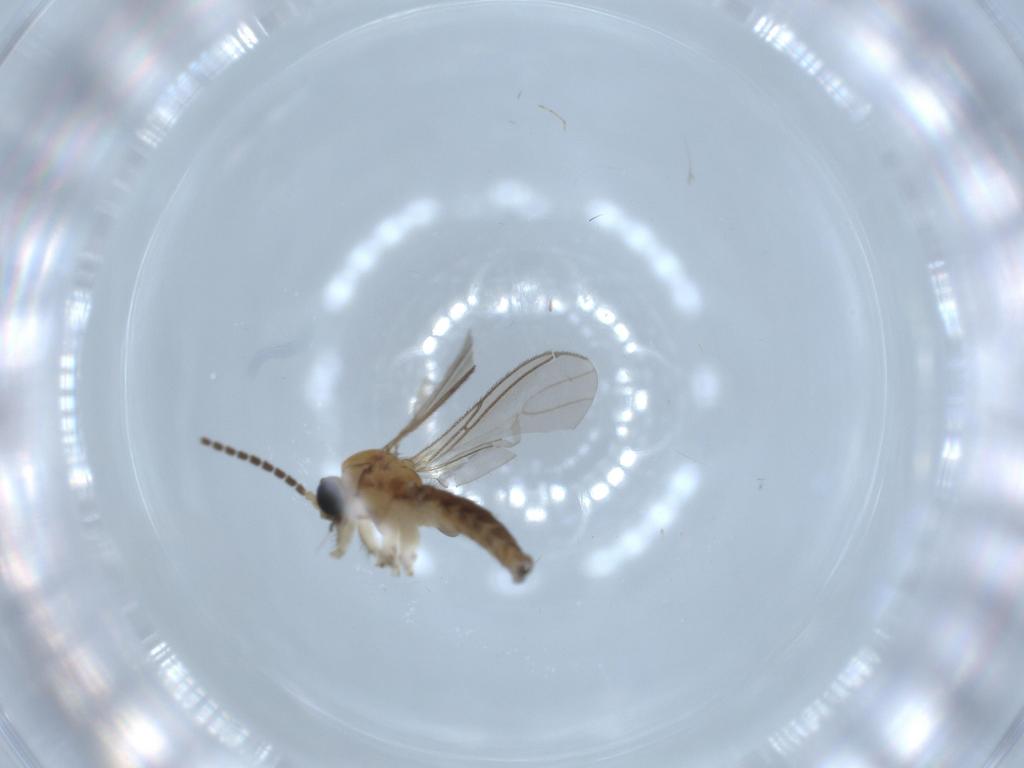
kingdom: Animalia
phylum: Arthropoda
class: Insecta
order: Diptera
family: Sciaridae
